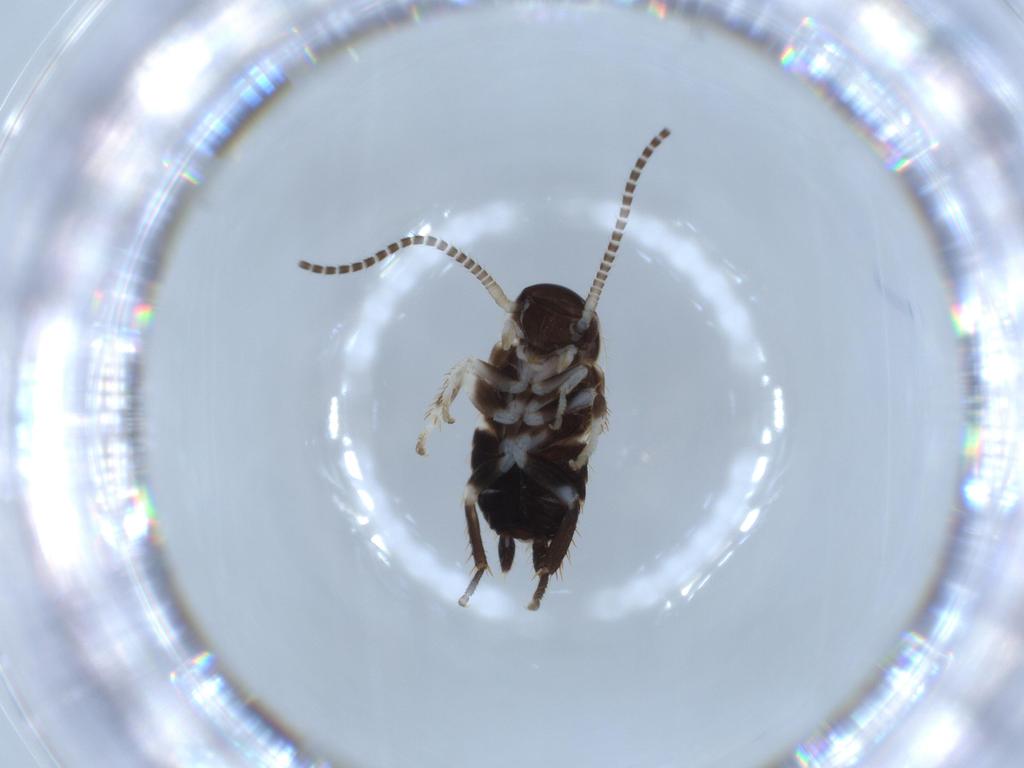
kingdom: Animalia
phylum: Arthropoda
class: Insecta
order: Blattodea
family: Ectobiidae
